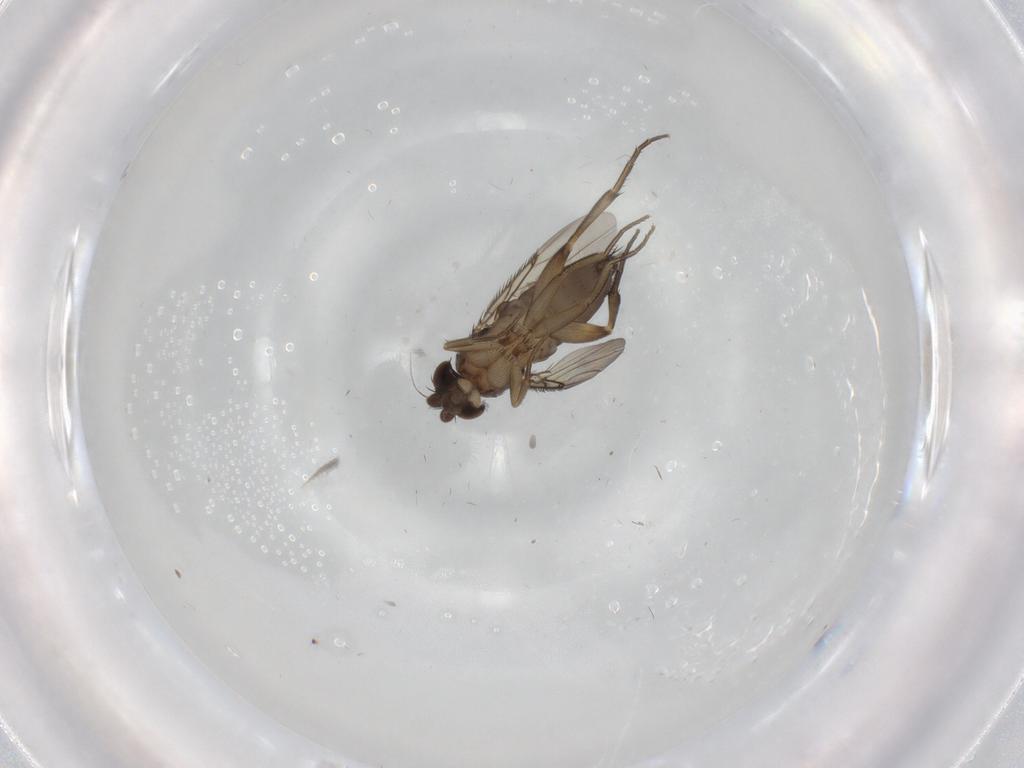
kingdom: Animalia
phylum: Arthropoda
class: Insecta
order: Diptera
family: Phoridae
